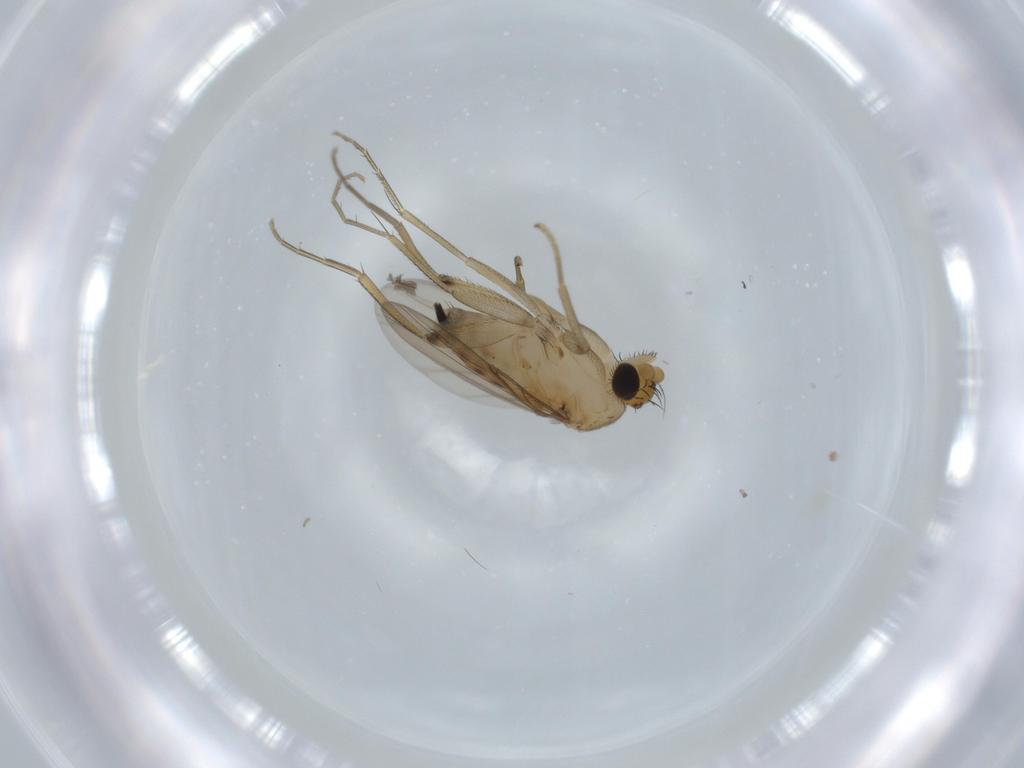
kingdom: Animalia
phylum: Arthropoda
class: Insecta
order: Diptera
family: Phoridae
